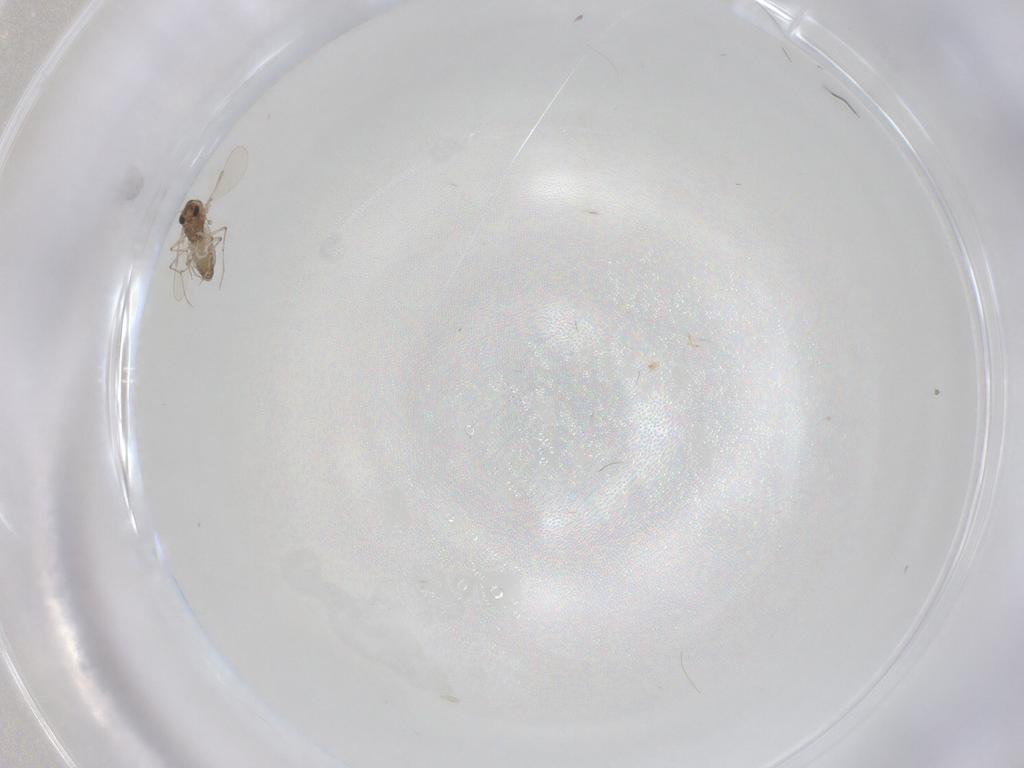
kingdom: Animalia
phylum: Arthropoda
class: Insecta
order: Diptera
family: Chironomidae
